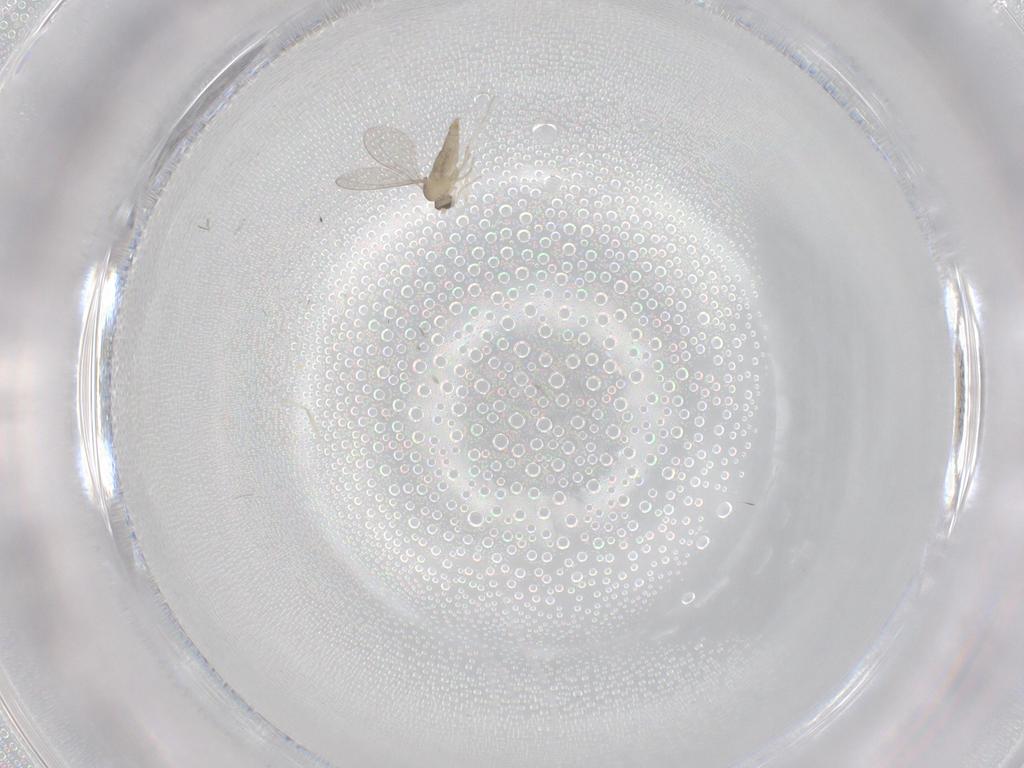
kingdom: Animalia
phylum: Arthropoda
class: Insecta
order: Diptera
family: Cecidomyiidae
